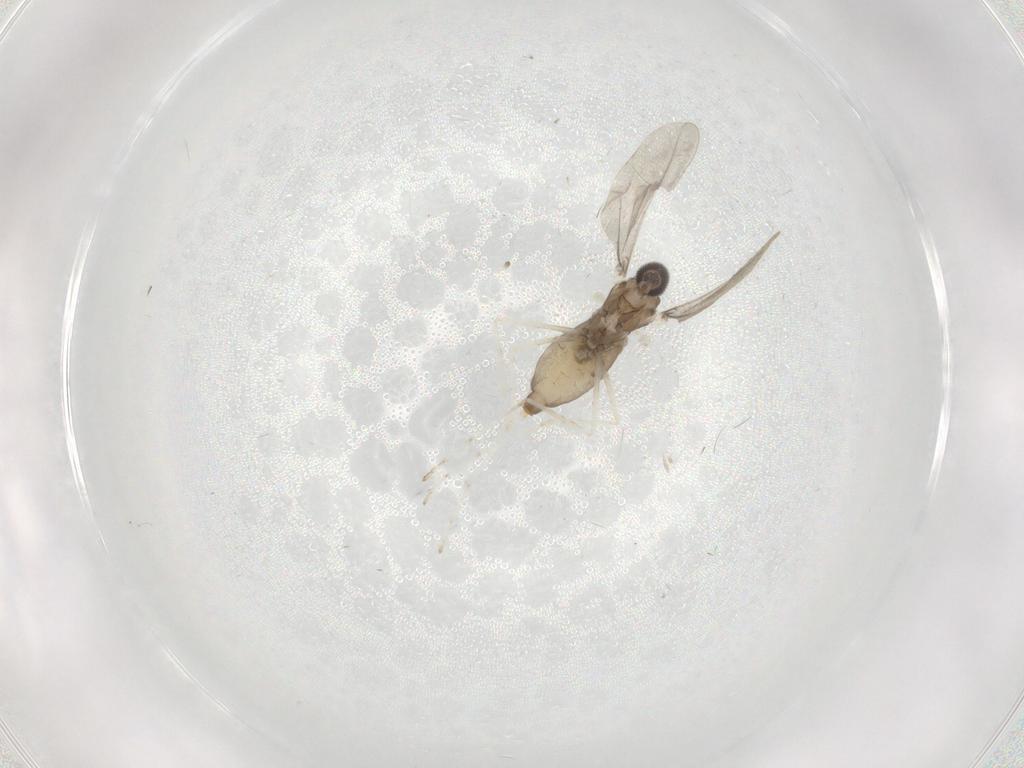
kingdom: Animalia
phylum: Arthropoda
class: Insecta
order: Diptera
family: Cecidomyiidae
